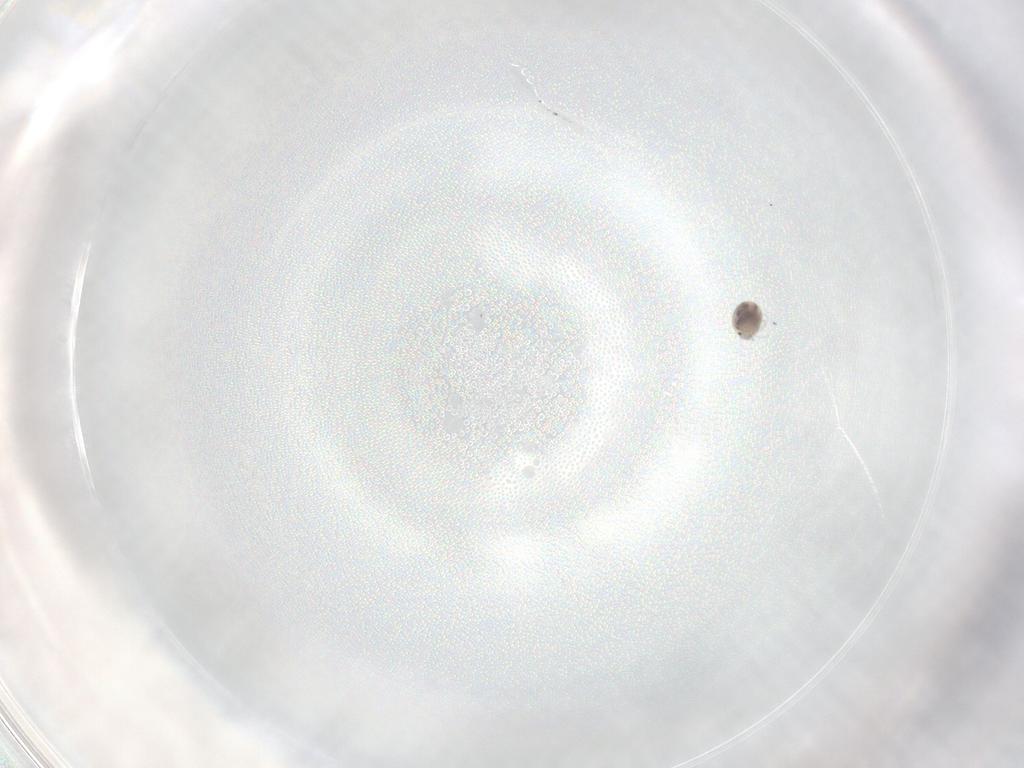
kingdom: Animalia
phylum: Arthropoda
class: Arachnida
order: Trombidiformes
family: Unionicolidae
